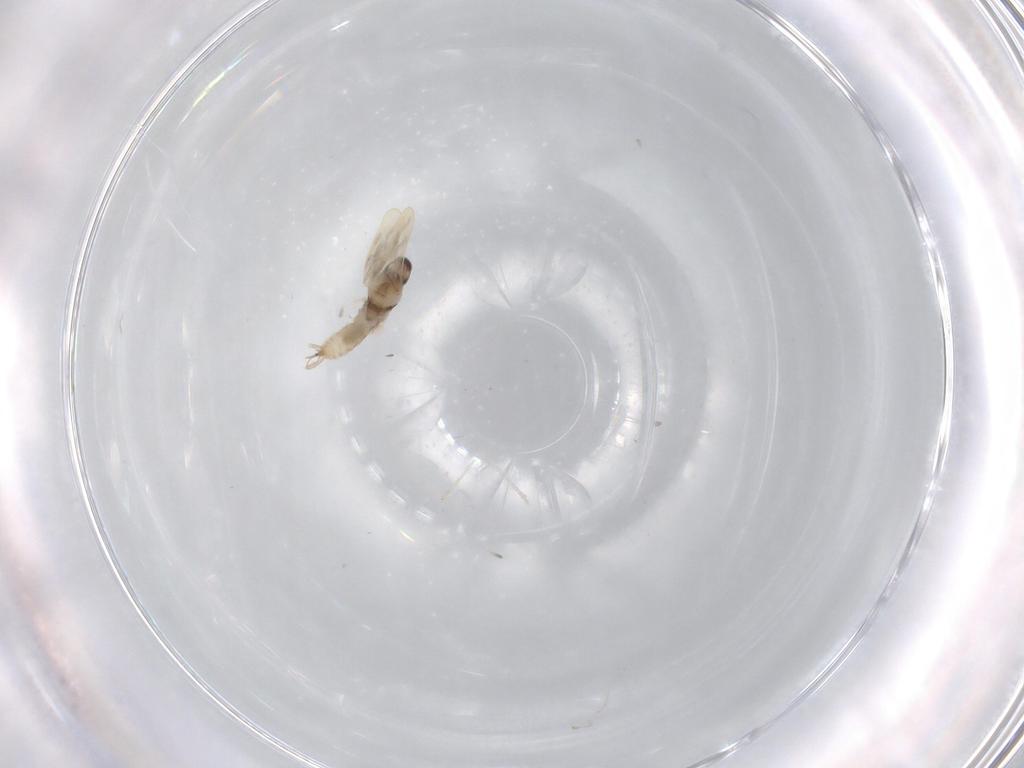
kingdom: Animalia
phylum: Arthropoda
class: Insecta
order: Diptera
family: Cecidomyiidae
